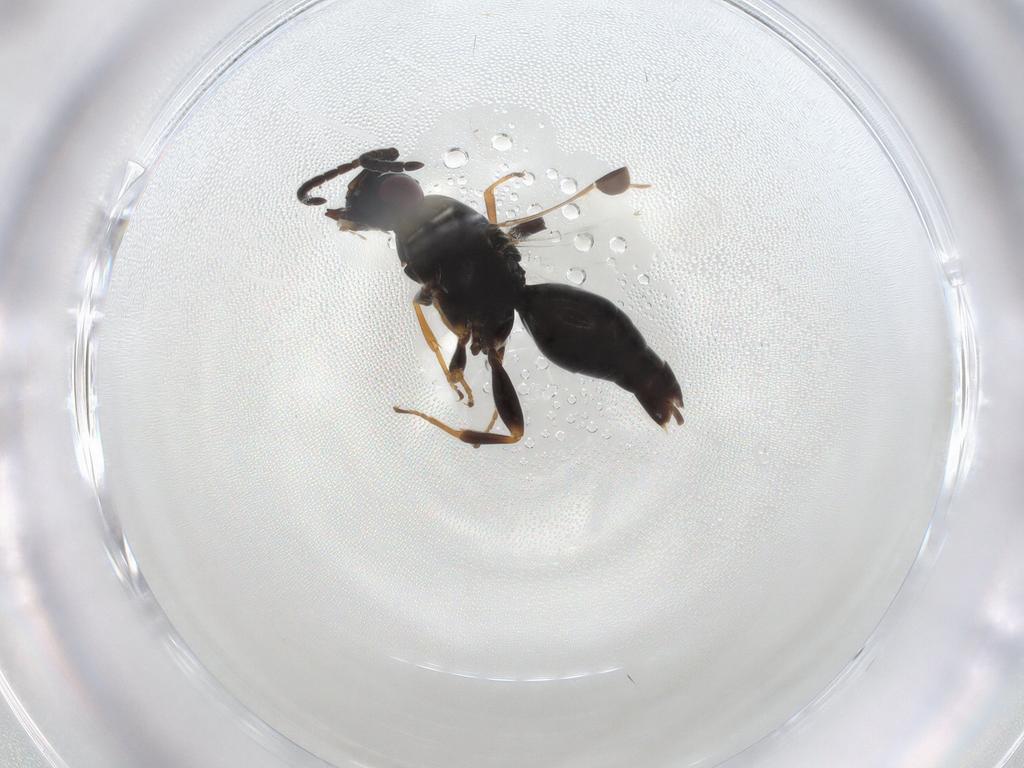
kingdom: Animalia
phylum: Arthropoda
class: Insecta
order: Hymenoptera
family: Megaspilidae
